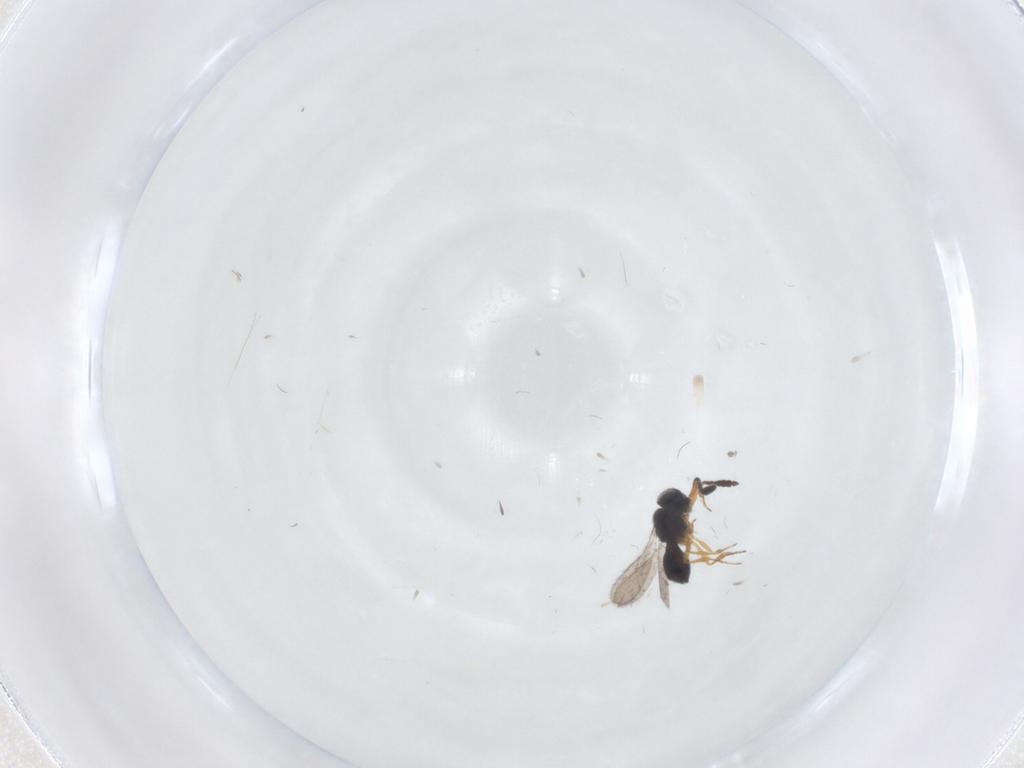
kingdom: Animalia
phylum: Arthropoda
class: Insecta
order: Hymenoptera
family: Scelionidae
